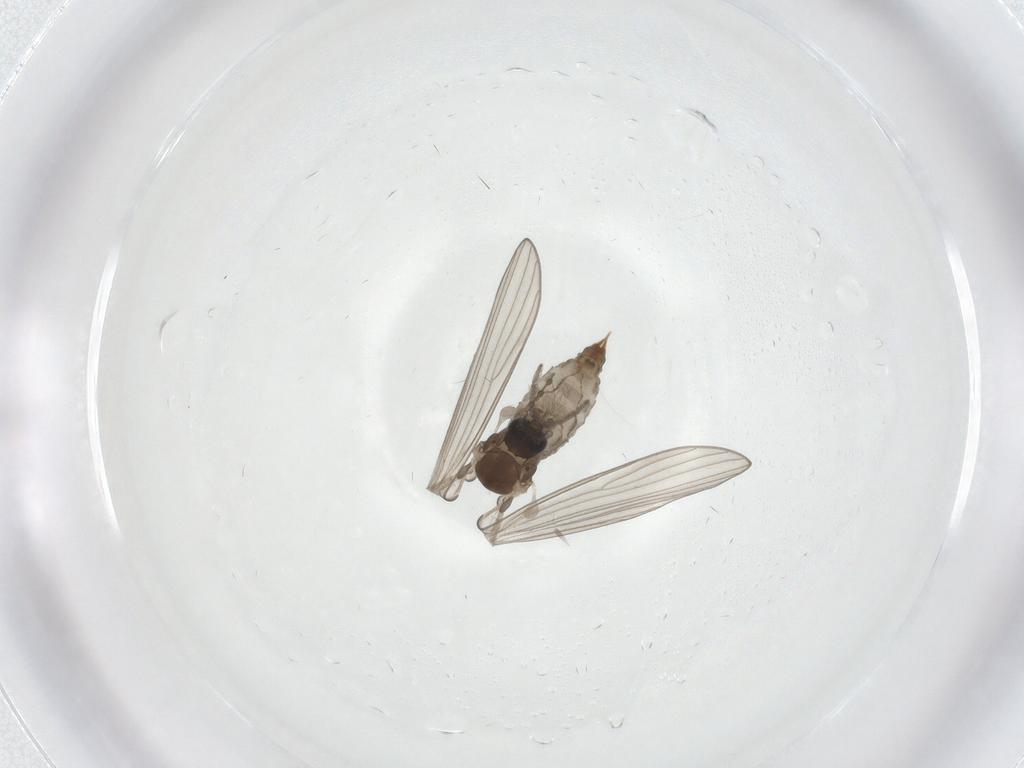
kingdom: Animalia
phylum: Arthropoda
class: Insecta
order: Diptera
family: Psychodidae
